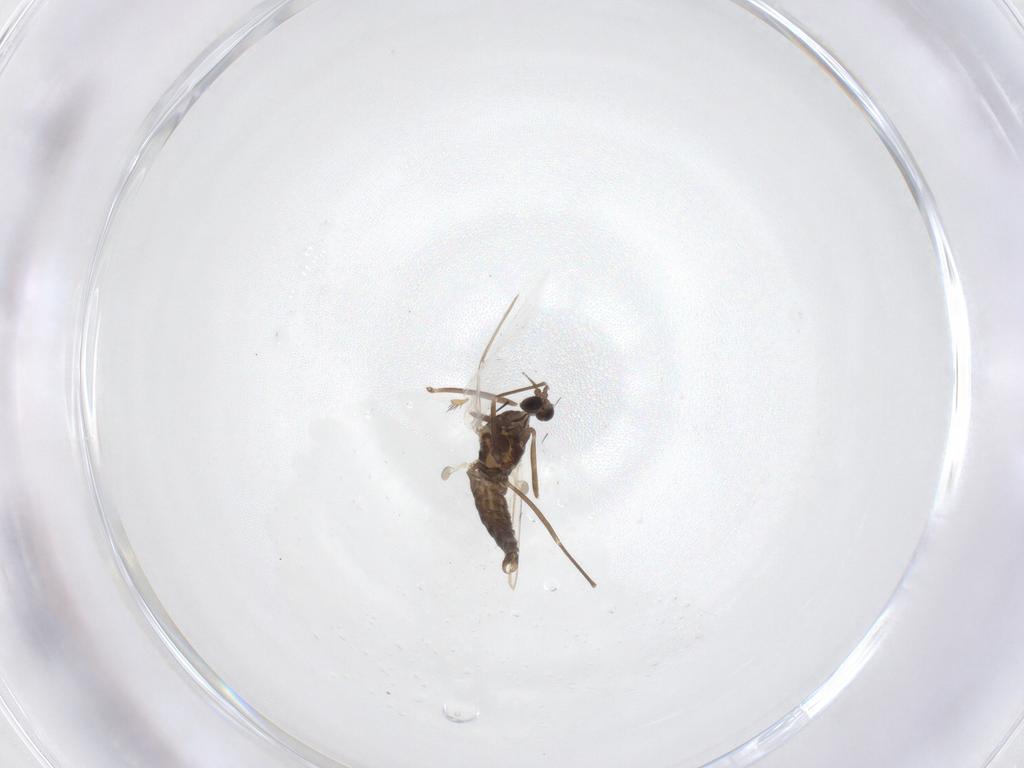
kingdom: Animalia
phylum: Arthropoda
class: Insecta
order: Diptera
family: Cecidomyiidae
